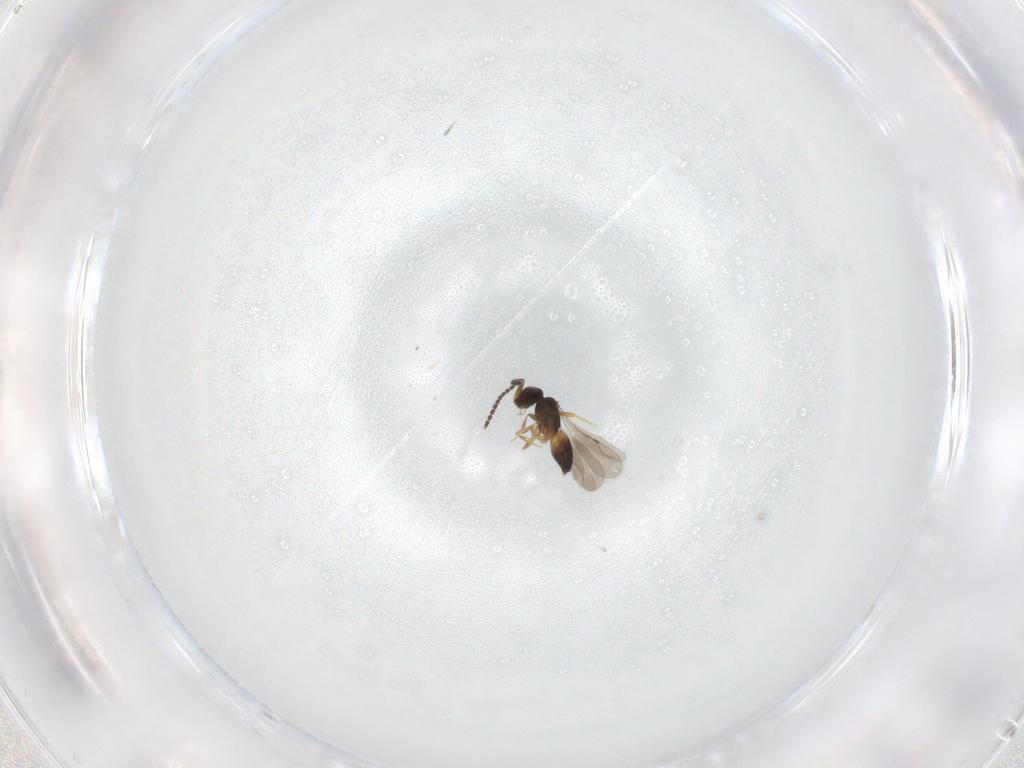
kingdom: Animalia
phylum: Arthropoda
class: Insecta
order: Hymenoptera
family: Ceraphronidae
